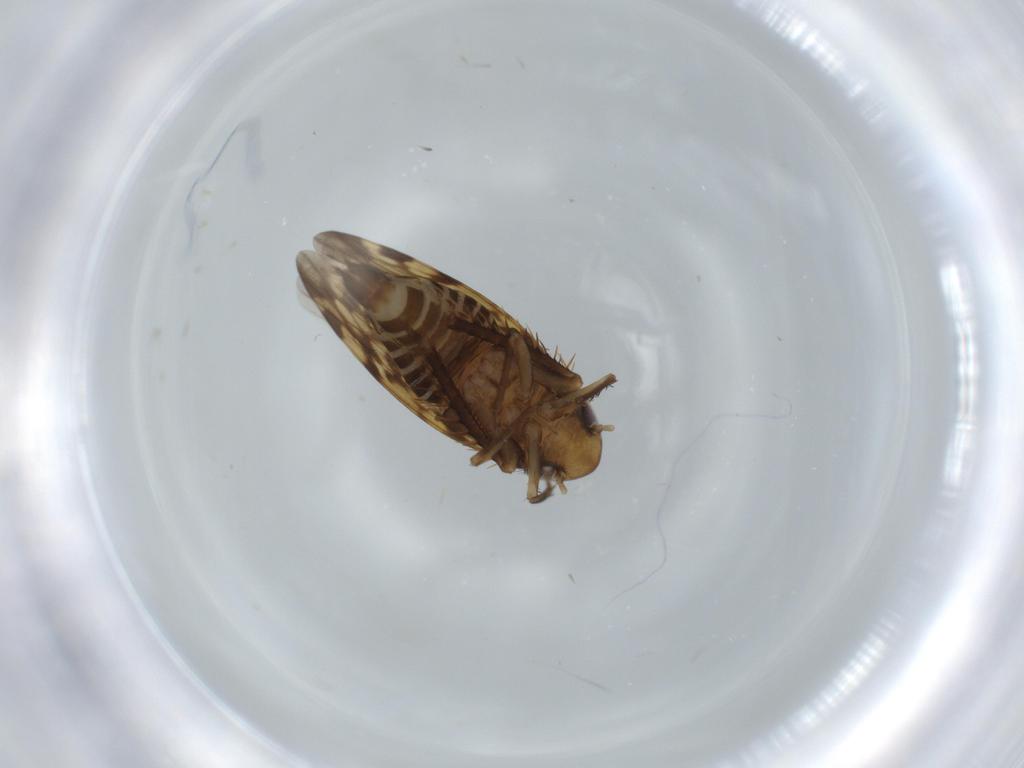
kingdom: Animalia
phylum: Arthropoda
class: Insecta
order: Hemiptera
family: Cicadellidae
